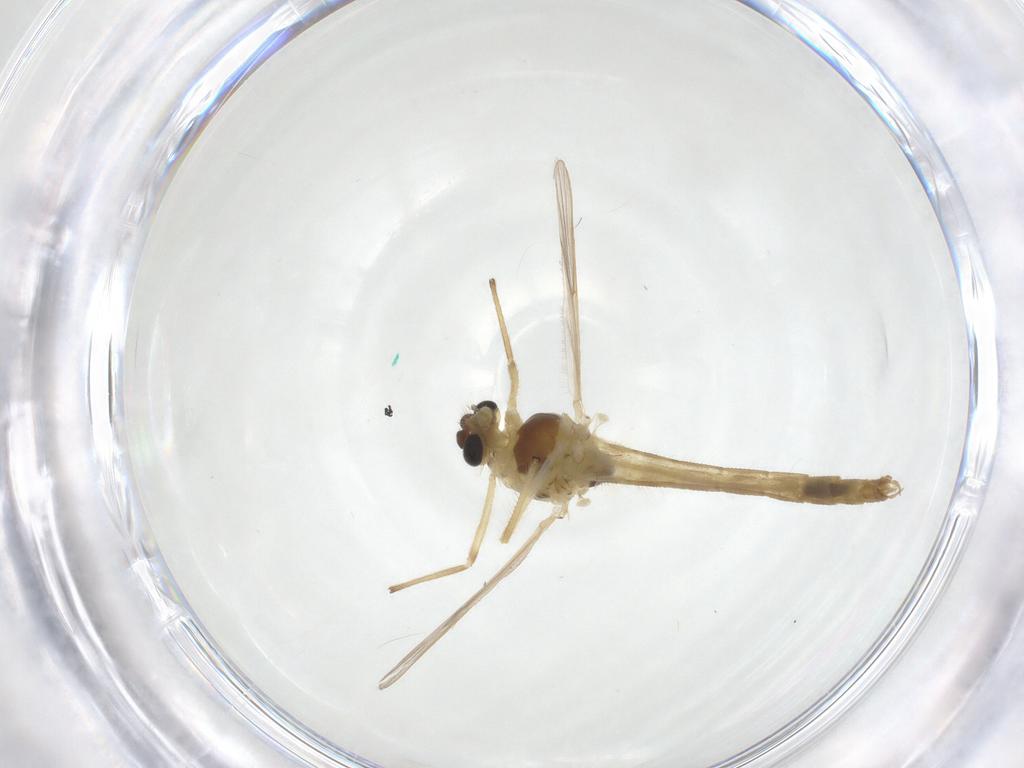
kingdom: Animalia
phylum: Arthropoda
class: Insecta
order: Diptera
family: Chironomidae
